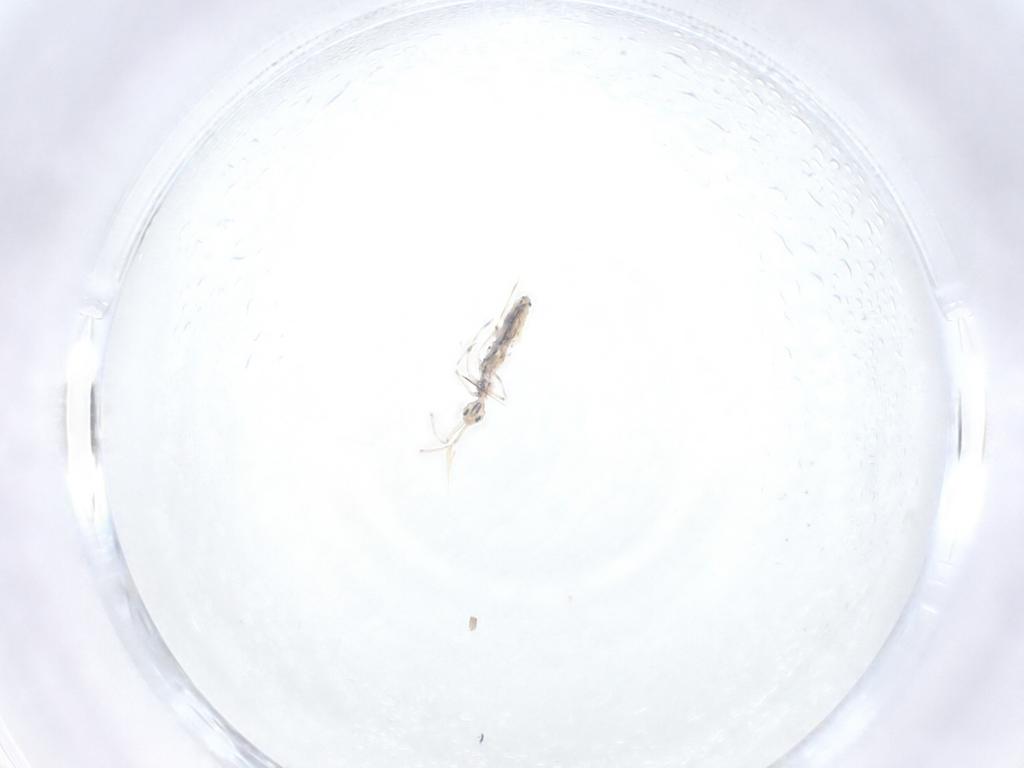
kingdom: Animalia
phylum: Arthropoda
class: Collembola
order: Entomobryomorpha
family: Entomobryidae
